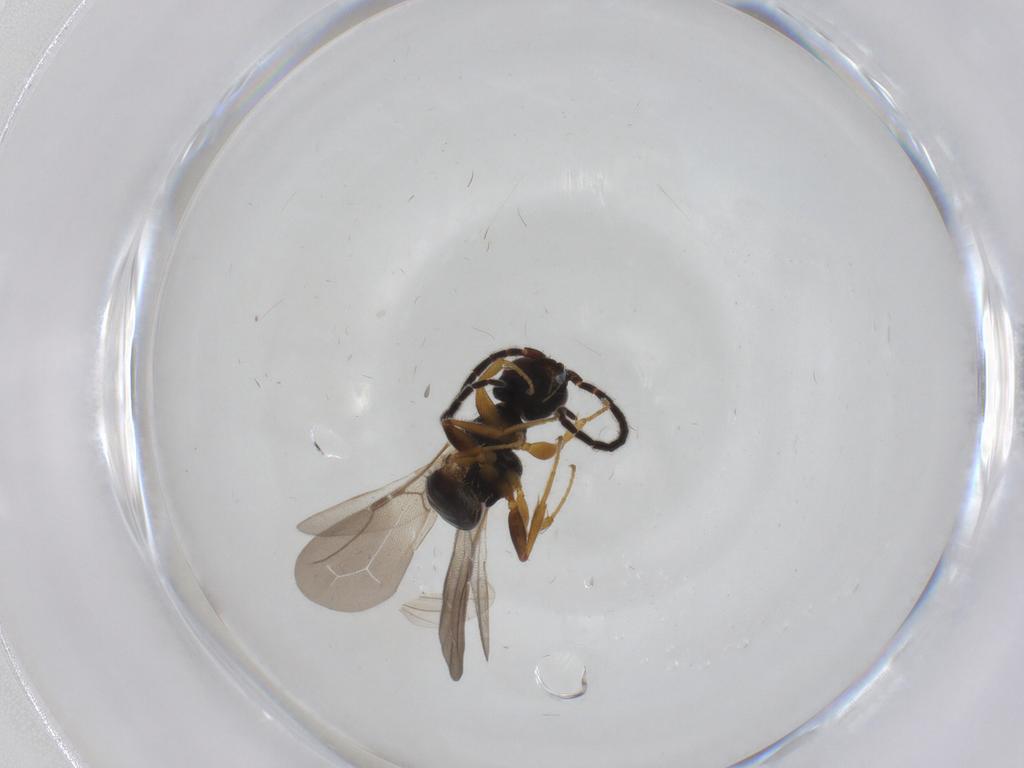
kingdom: Animalia
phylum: Arthropoda
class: Insecta
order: Hymenoptera
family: Bethylidae
